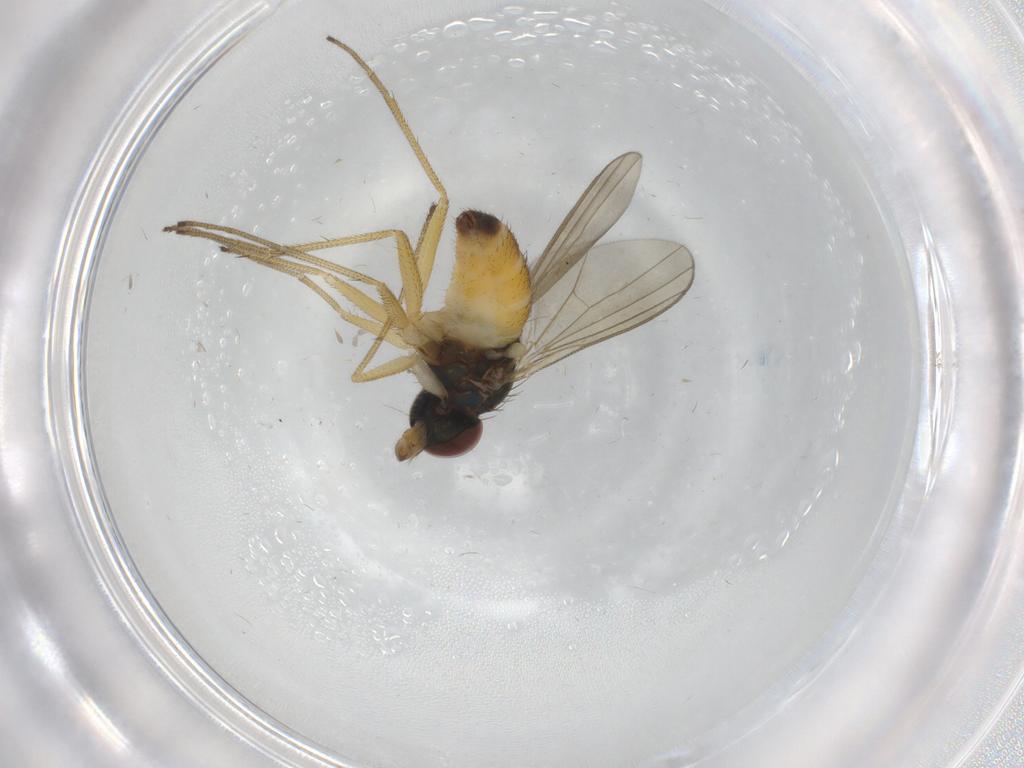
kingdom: Animalia
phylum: Arthropoda
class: Insecta
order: Diptera
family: Dolichopodidae
